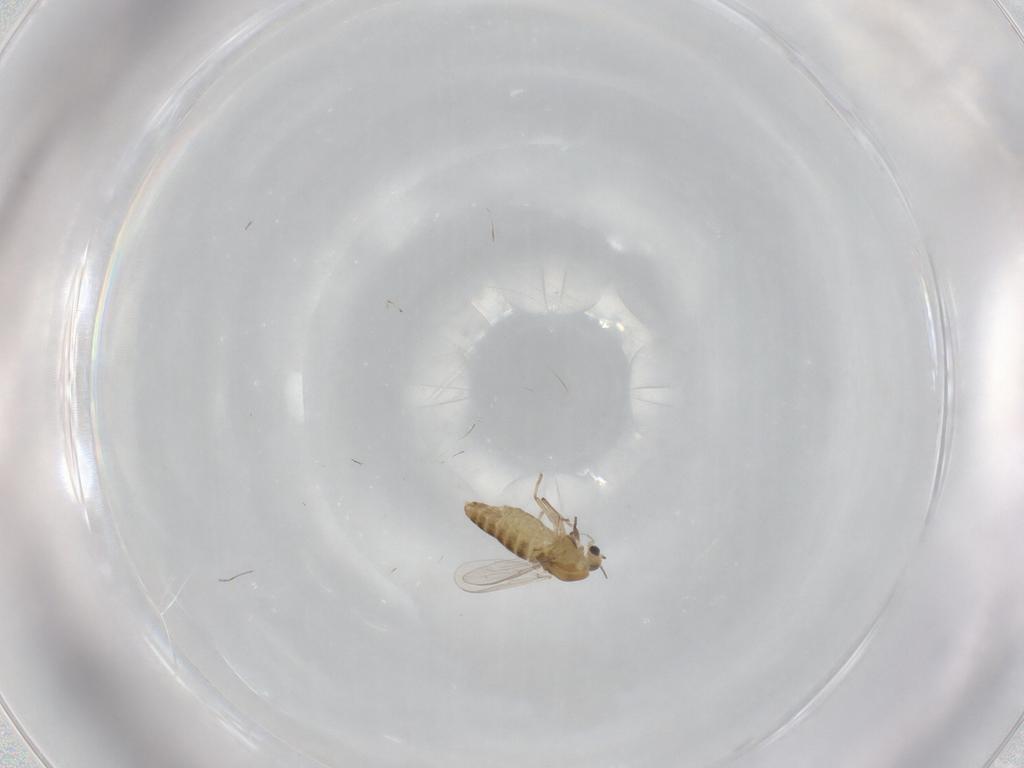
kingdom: Animalia
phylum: Arthropoda
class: Insecta
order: Diptera
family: Chironomidae
